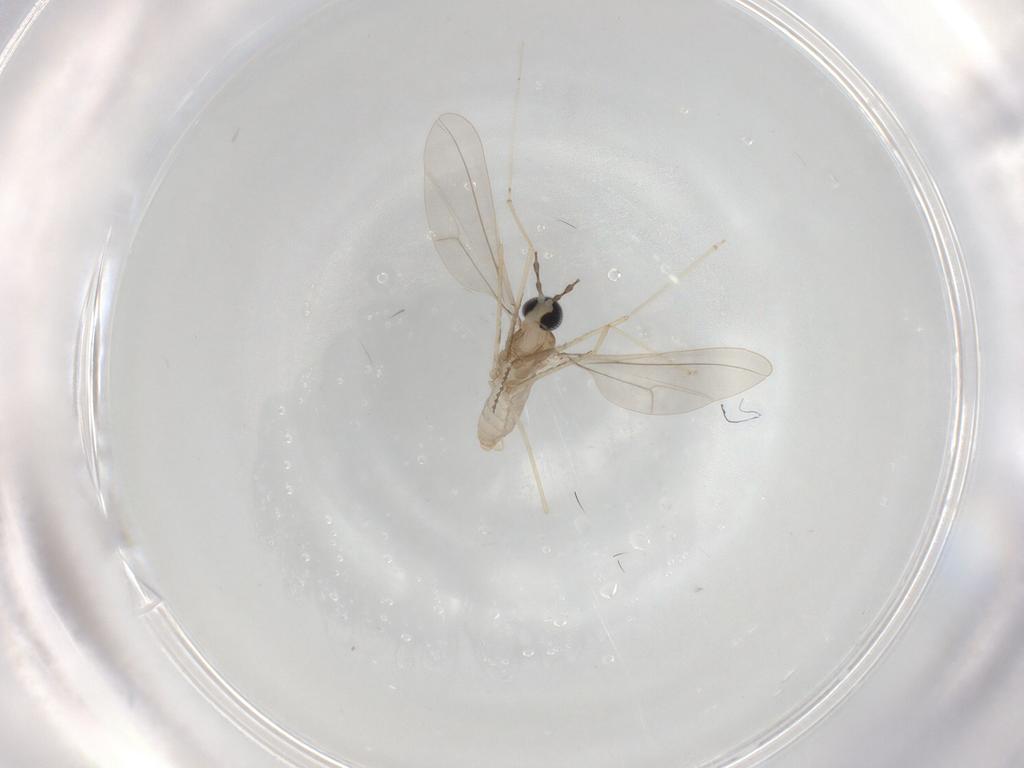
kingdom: Animalia
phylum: Arthropoda
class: Insecta
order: Diptera
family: Cecidomyiidae
